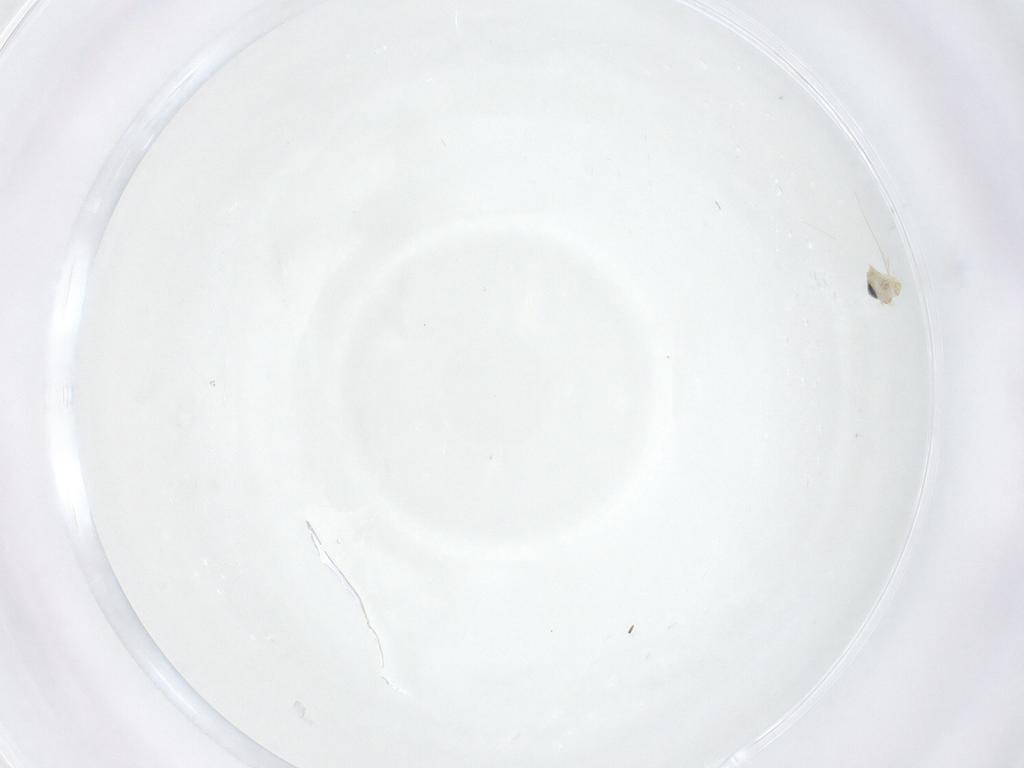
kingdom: Animalia
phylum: Arthropoda
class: Insecta
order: Diptera
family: Cecidomyiidae
